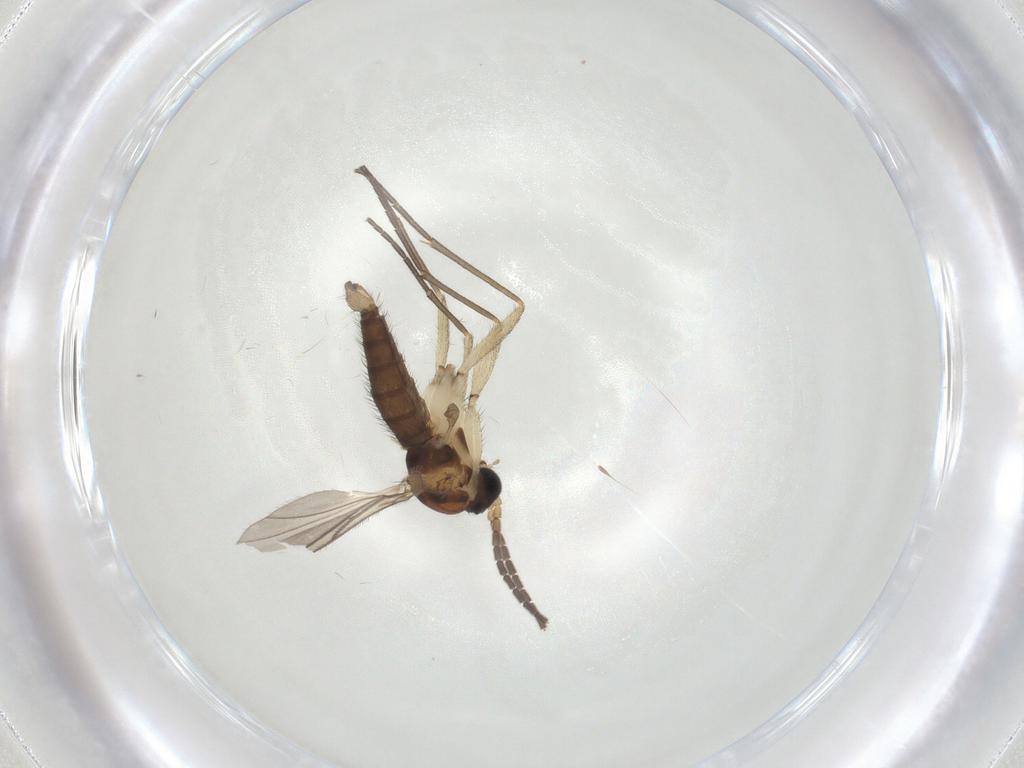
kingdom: Animalia
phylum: Arthropoda
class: Insecta
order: Diptera
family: Sciaridae
